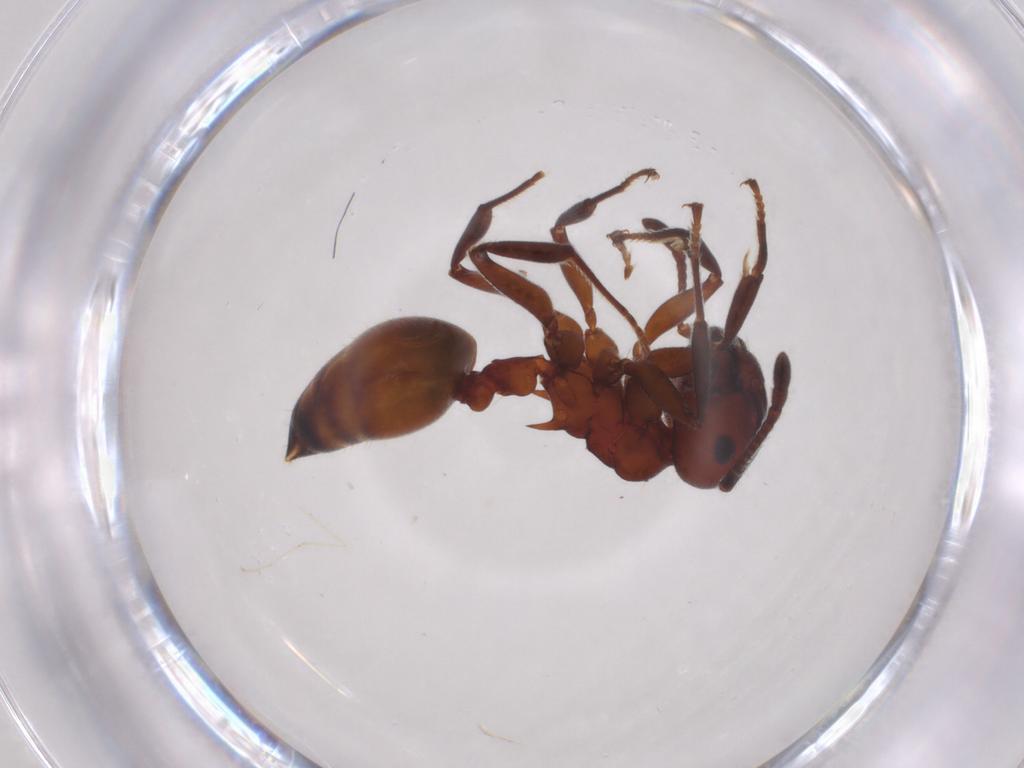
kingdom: Animalia
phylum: Arthropoda
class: Insecta
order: Hymenoptera
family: Formicidae
